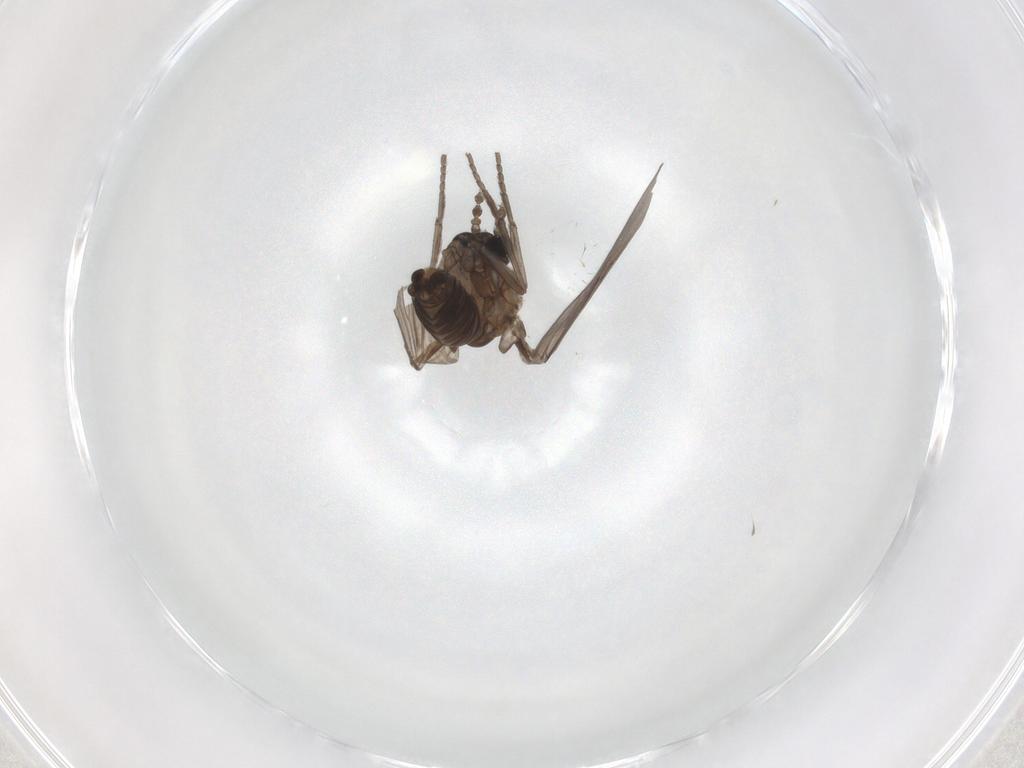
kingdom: Animalia
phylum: Arthropoda
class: Insecta
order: Diptera
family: Psychodidae
